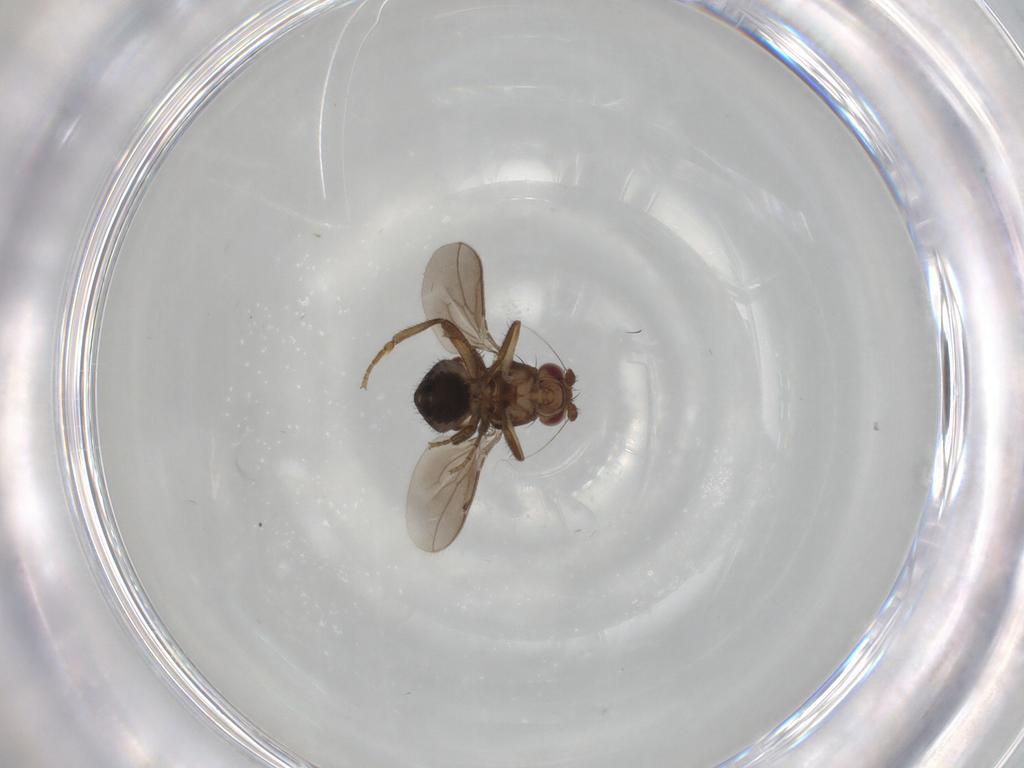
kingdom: Animalia
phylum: Arthropoda
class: Insecta
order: Diptera
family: Sphaeroceridae
